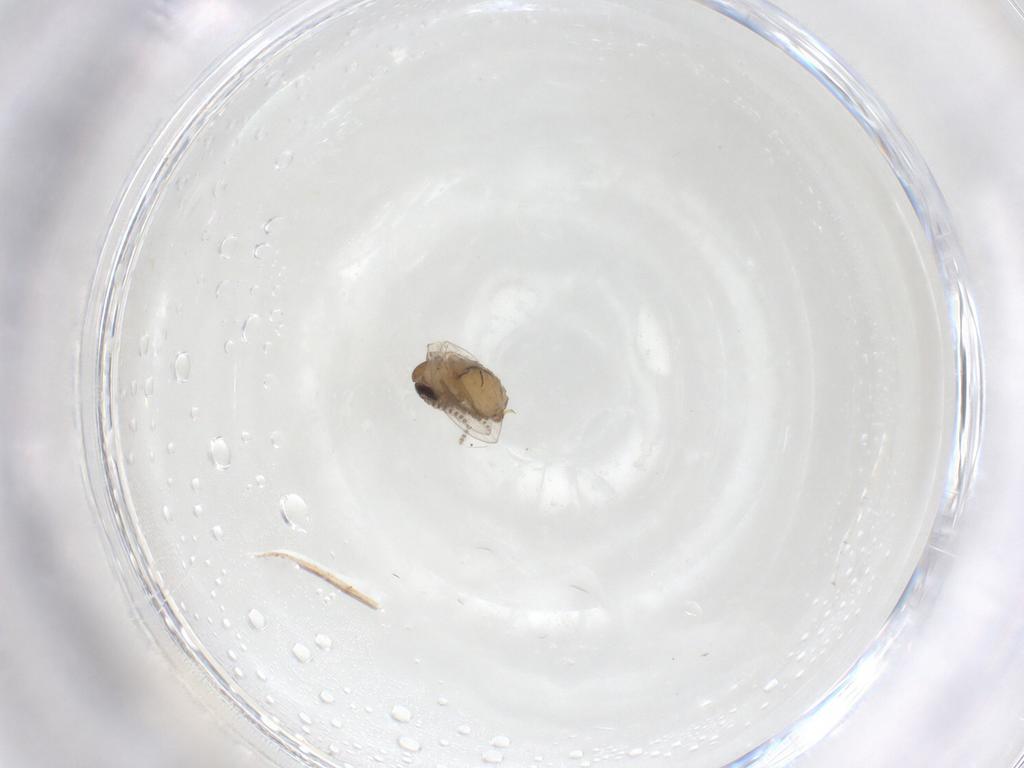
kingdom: Animalia
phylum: Arthropoda
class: Insecta
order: Diptera
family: Psychodidae
